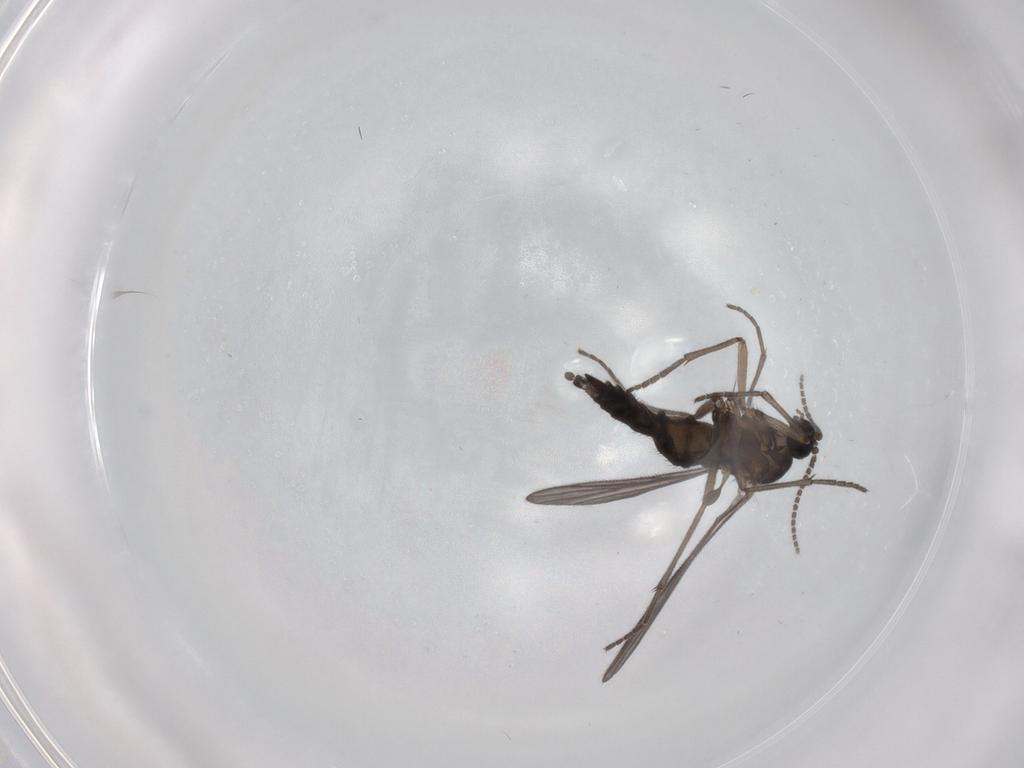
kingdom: Animalia
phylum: Arthropoda
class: Insecta
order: Diptera
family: Sciaridae
